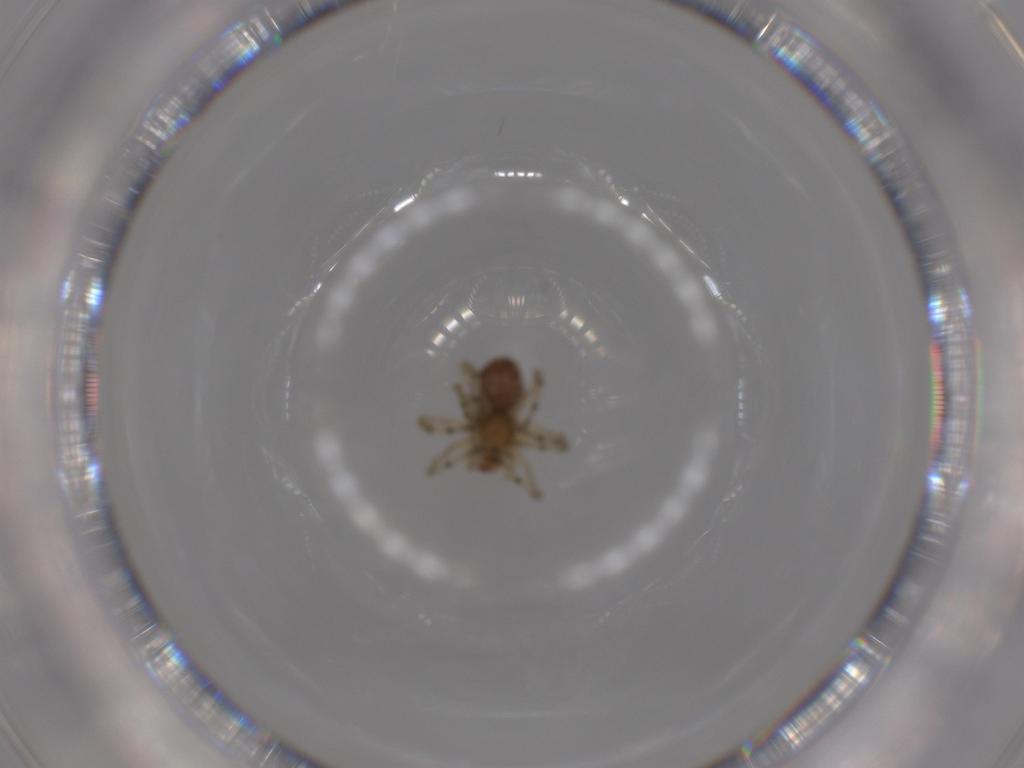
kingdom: Animalia
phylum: Arthropoda
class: Arachnida
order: Araneae
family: Dictynidae
